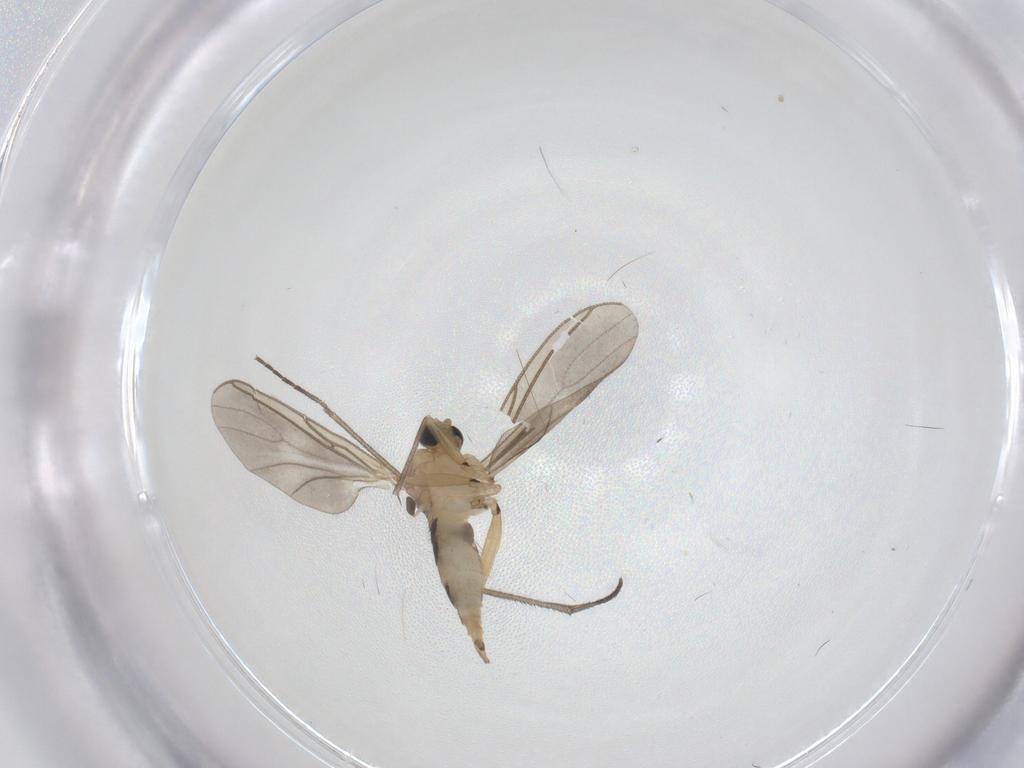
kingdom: Animalia
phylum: Arthropoda
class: Insecta
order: Diptera
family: Sciaridae
